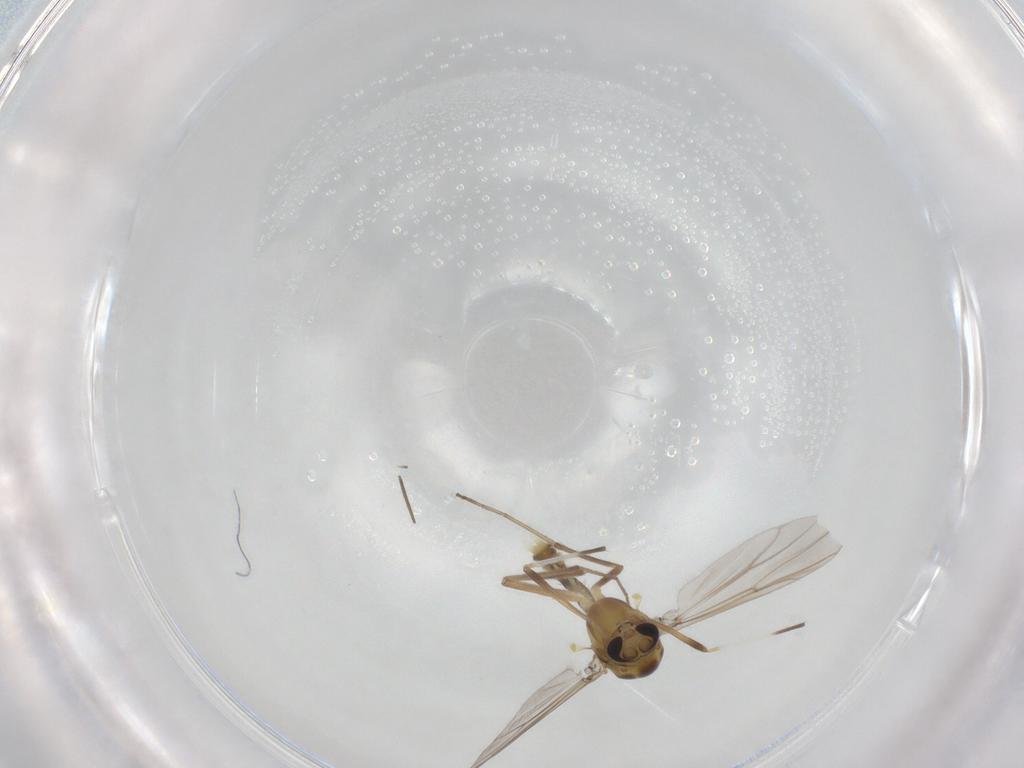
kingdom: Animalia
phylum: Arthropoda
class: Insecta
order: Diptera
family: Chironomidae
